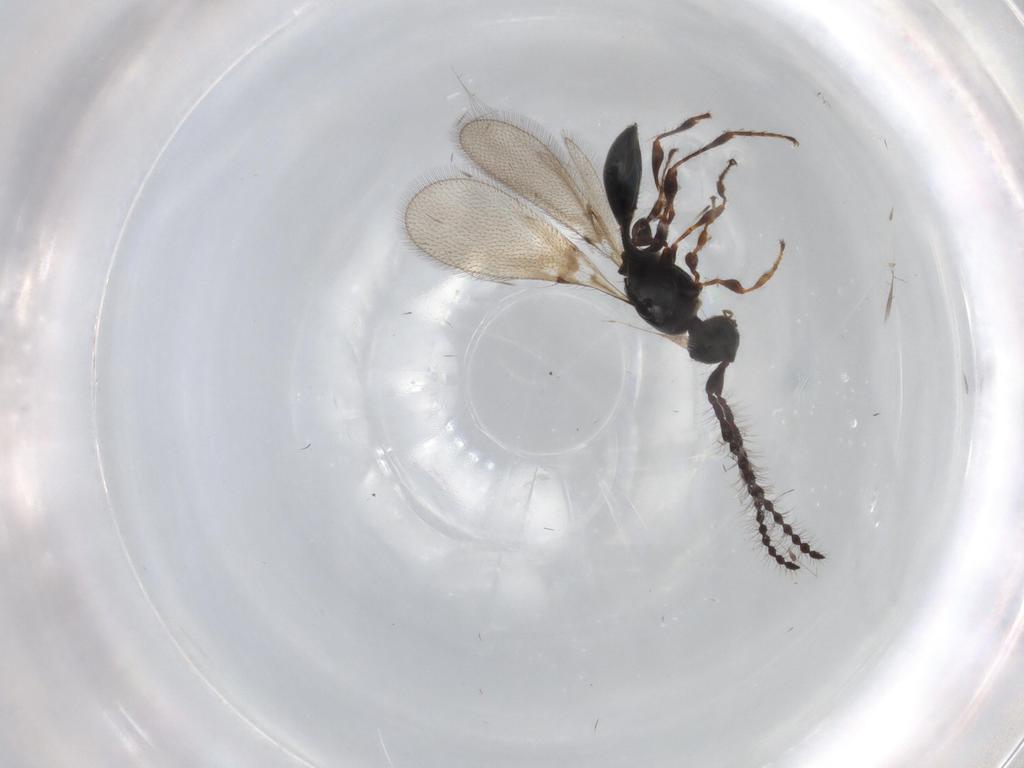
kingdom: Animalia
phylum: Arthropoda
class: Insecta
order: Hymenoptera
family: Diapriidae
